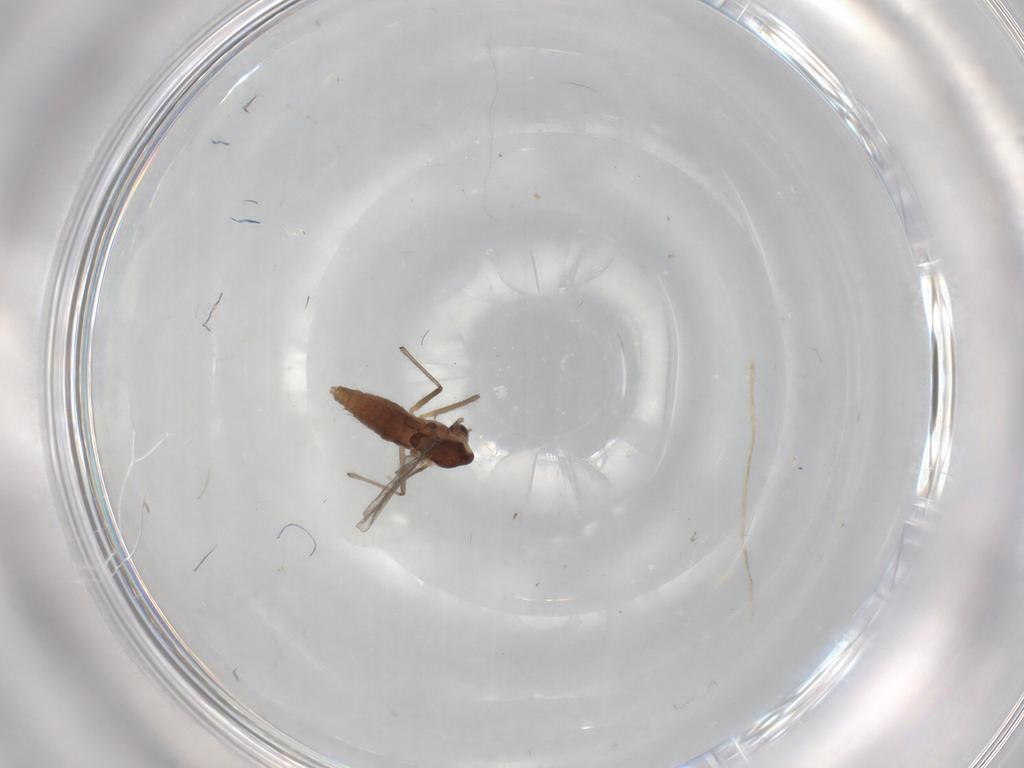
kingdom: Animalia
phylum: Arthropoda
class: Insecta
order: Diptera
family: Chironomidae
